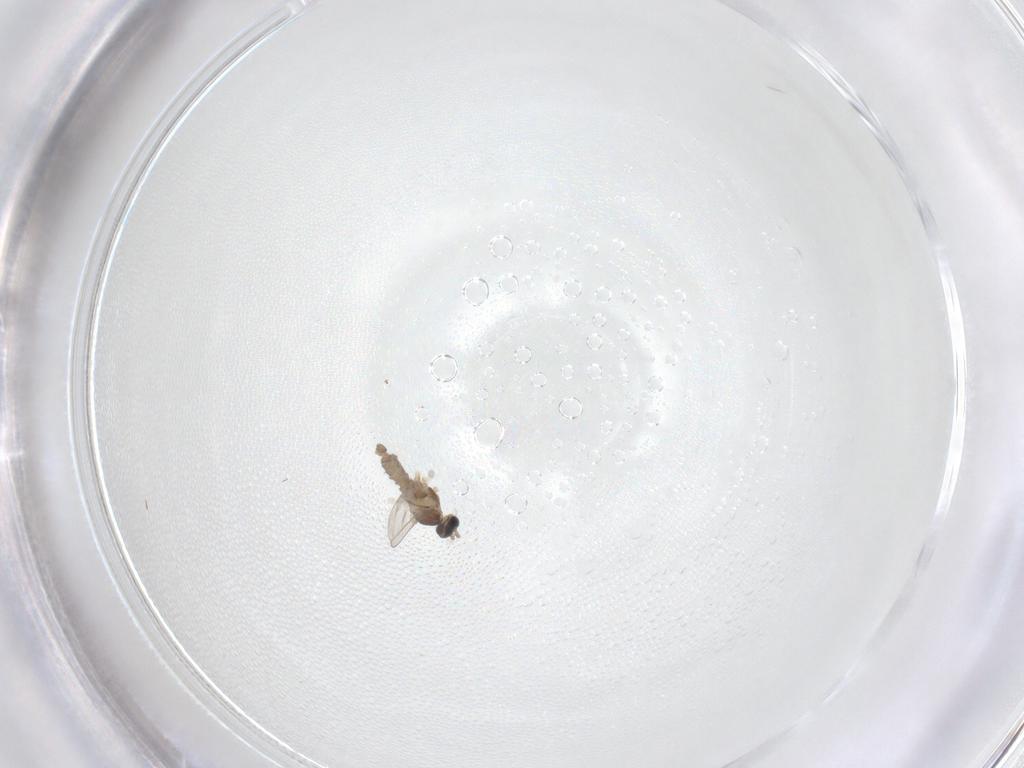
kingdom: Animalia
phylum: Arthropoda
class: Insecta
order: Diptera
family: Cecidomyiidae
